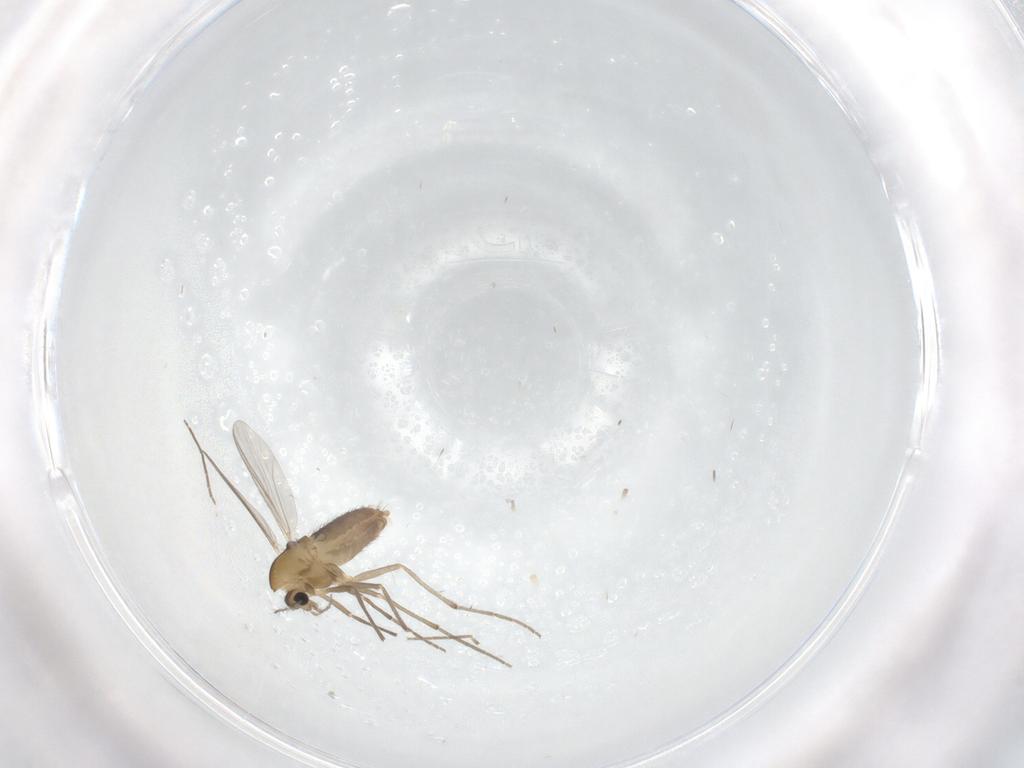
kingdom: Animalia
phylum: Arthropoda
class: Insecta
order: Diptera
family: Chironomidae
